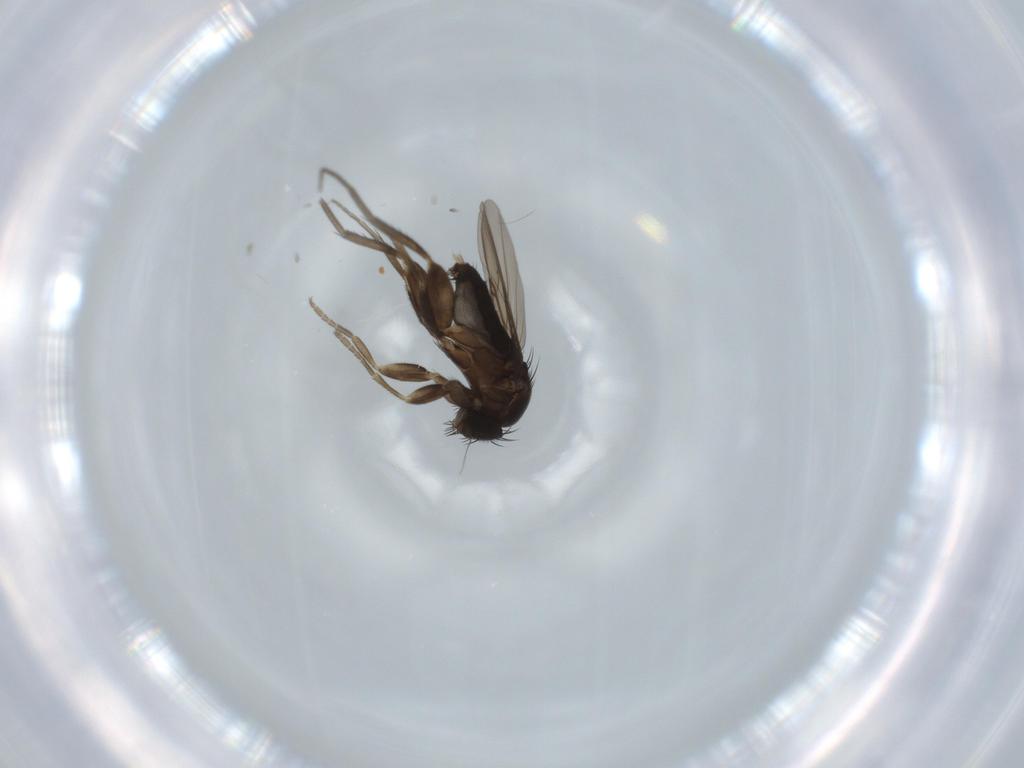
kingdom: Animalia
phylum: Arthropoda
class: Insecta
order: Diptera
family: Phoridae
